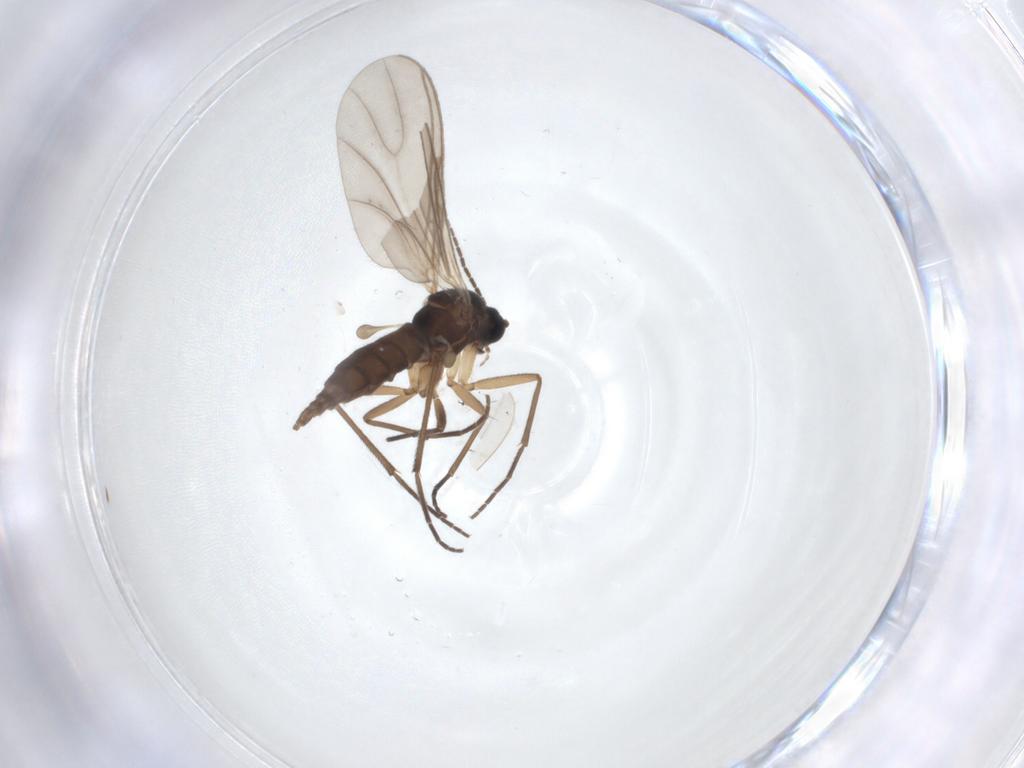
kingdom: Animalia
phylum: Arthropoda
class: Insecta
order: Diptera
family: Sciaridae
